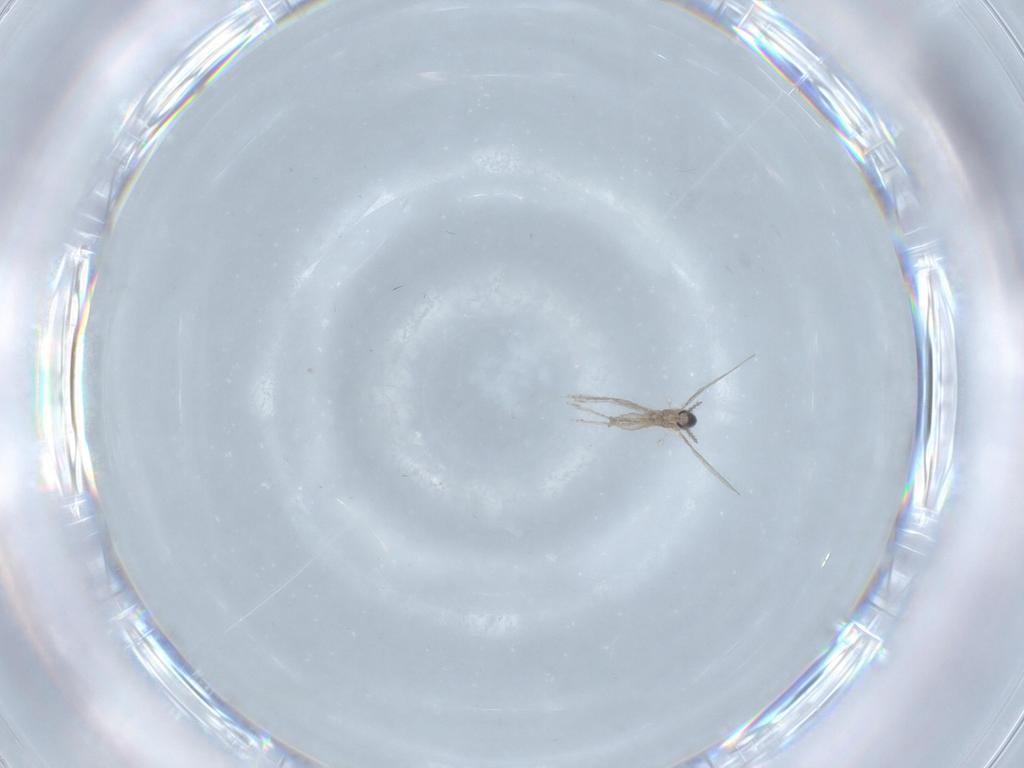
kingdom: Animalia
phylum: Arthropoda
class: Insecta
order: Diptera
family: Cecidomyiidae
